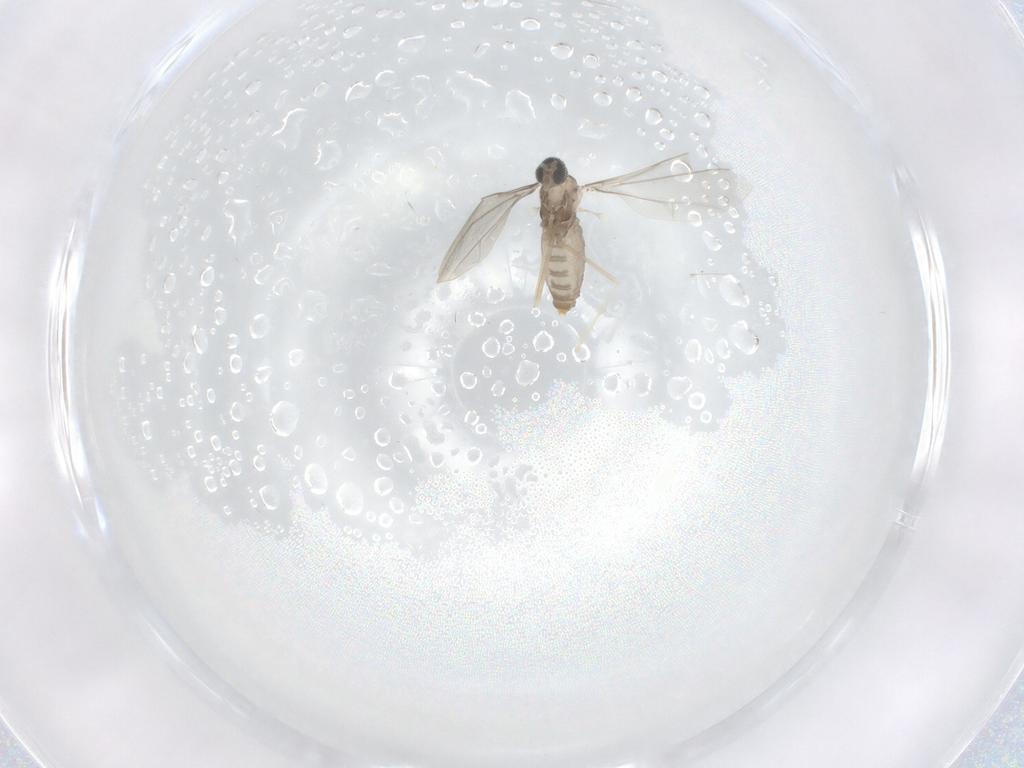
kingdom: Animalia
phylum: Arthropoda
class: Insecta
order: Diptera
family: Cecidomyiidae
